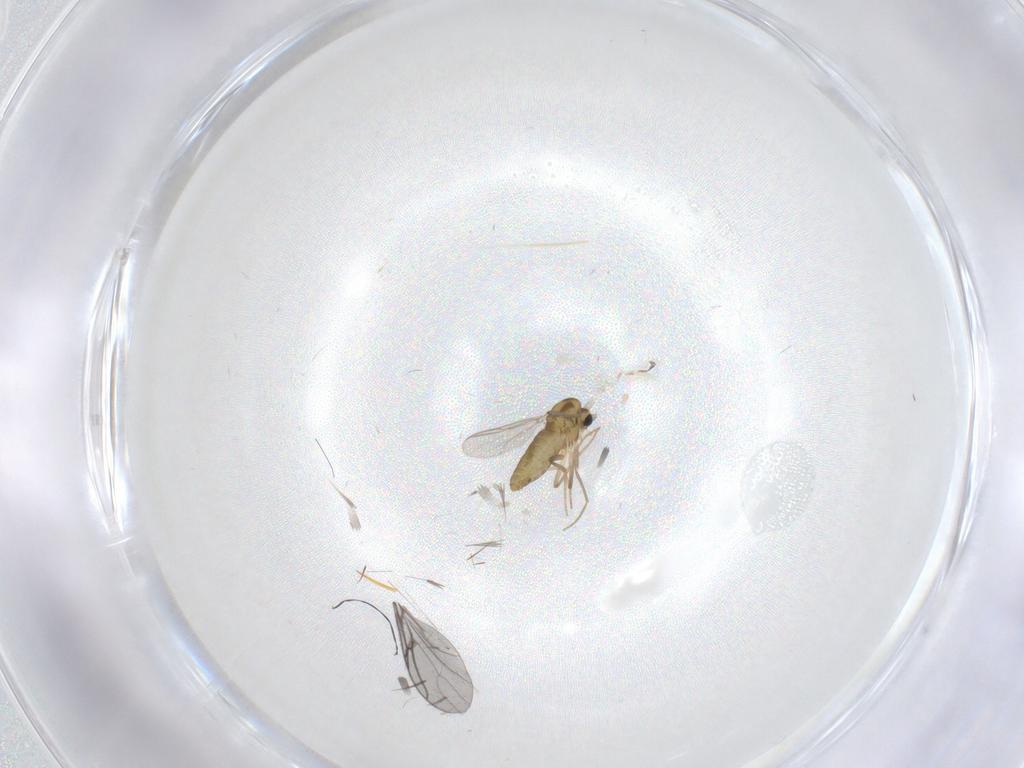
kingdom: Animalia
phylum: Arthropoda
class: Insecta
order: Diptera
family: Chironomidae
